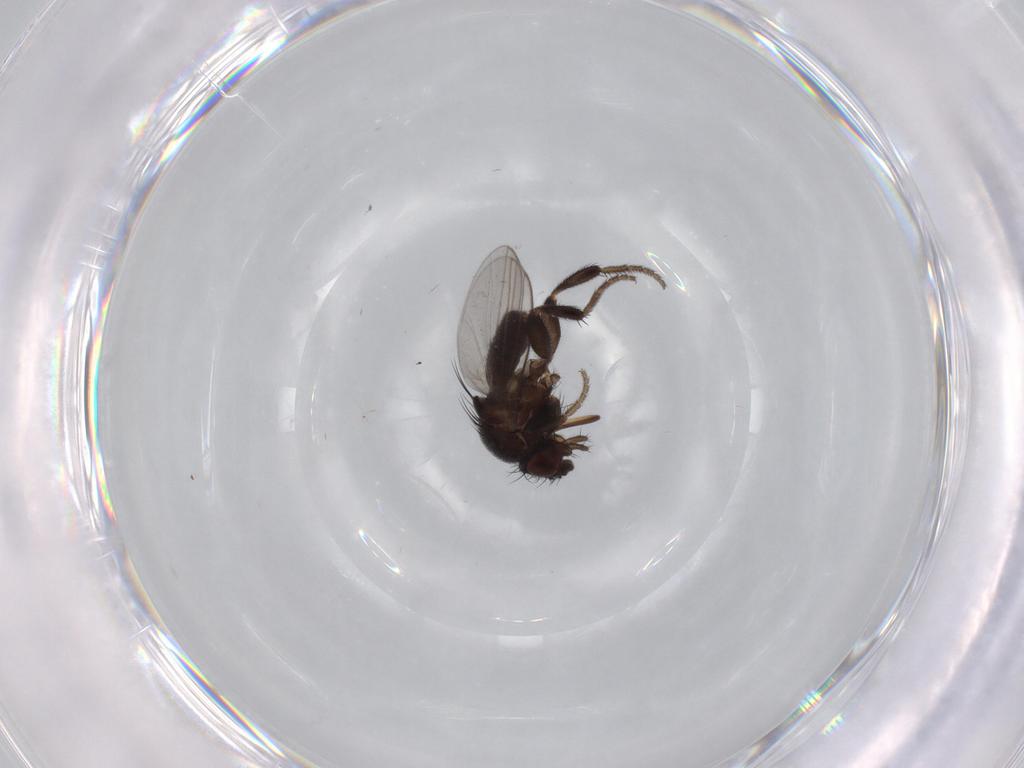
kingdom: Animalia
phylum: Arthropoda
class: Insecta
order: Diptera
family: Milichiidae
